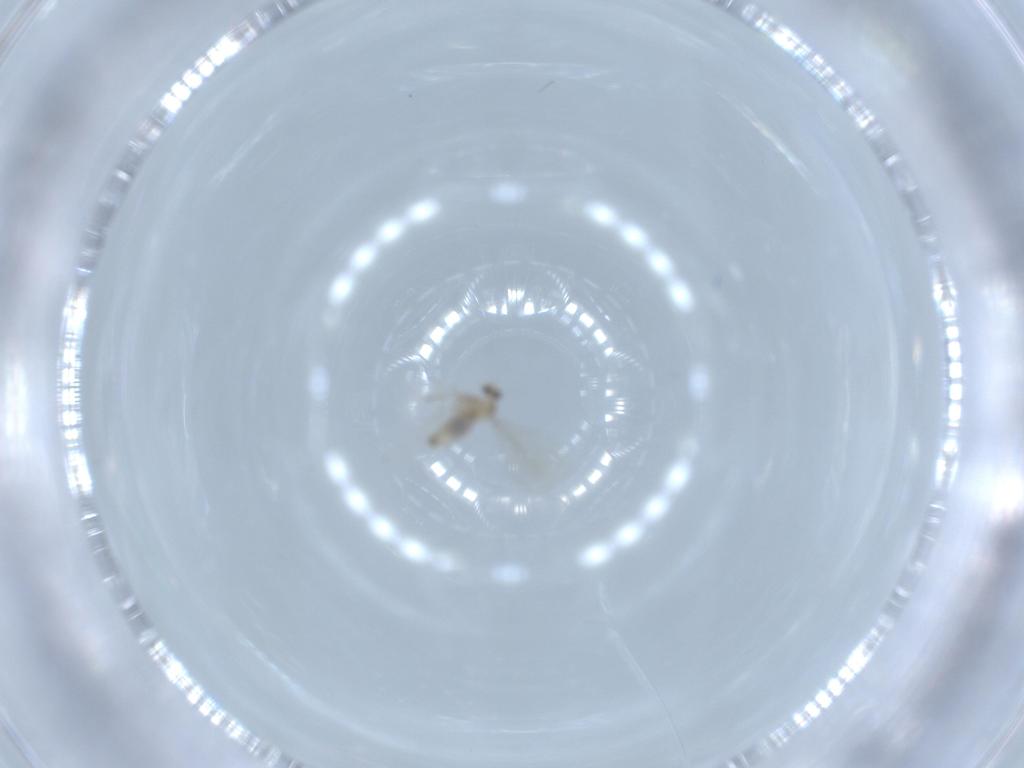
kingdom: Animalia
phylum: Arthropoda
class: Insecta
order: Diptera
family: Cecidomyiidae
